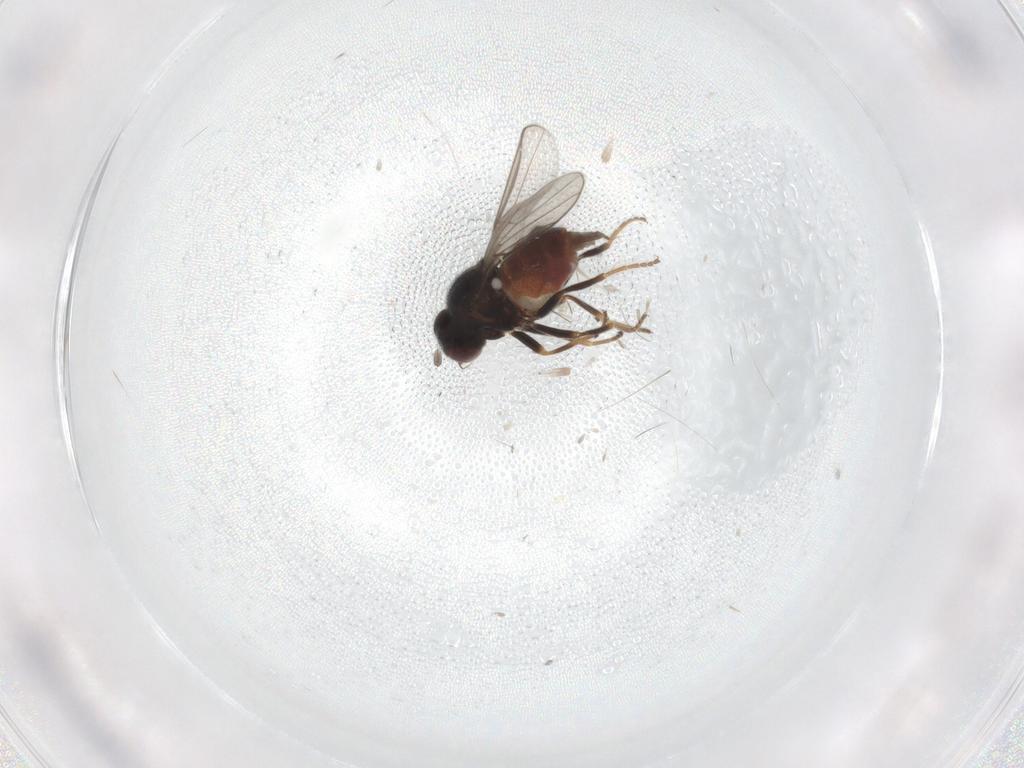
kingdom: Animalia
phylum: Arthropoda
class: Insecta
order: Diptera
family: Chloropidae
